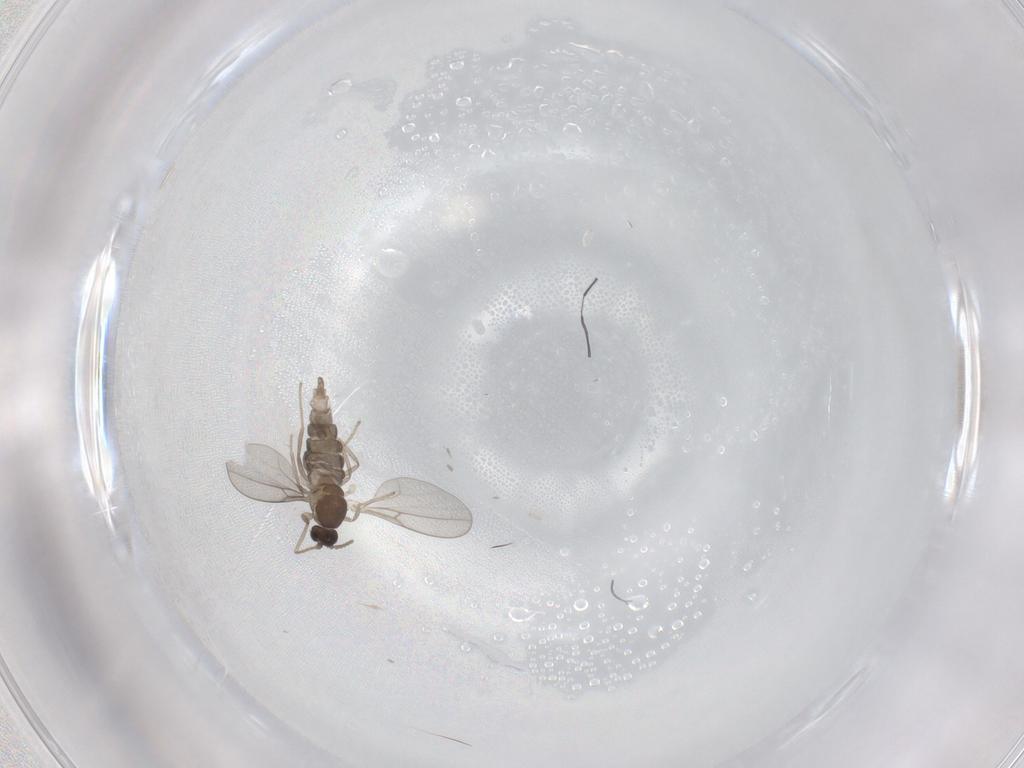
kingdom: Animalia
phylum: Arthropoda
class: Insecta
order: Diptera
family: Cecidomyiidae
